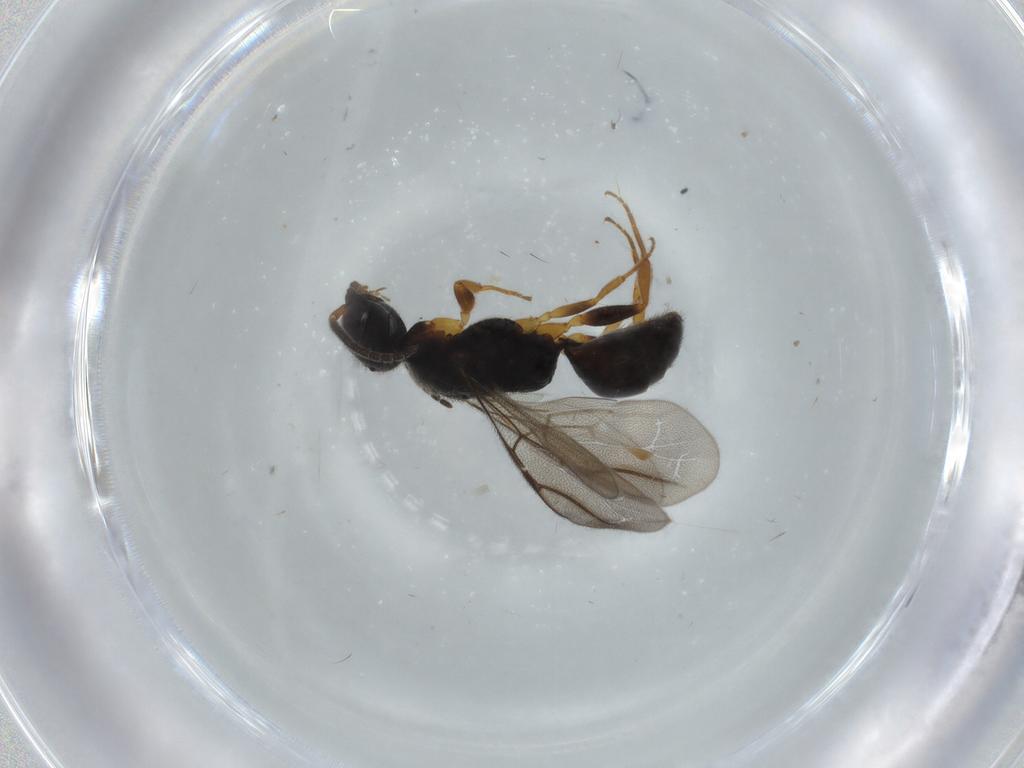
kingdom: Animalia
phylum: Arthropoda
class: Insecta
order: Hymenoptera
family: Bethylidae
